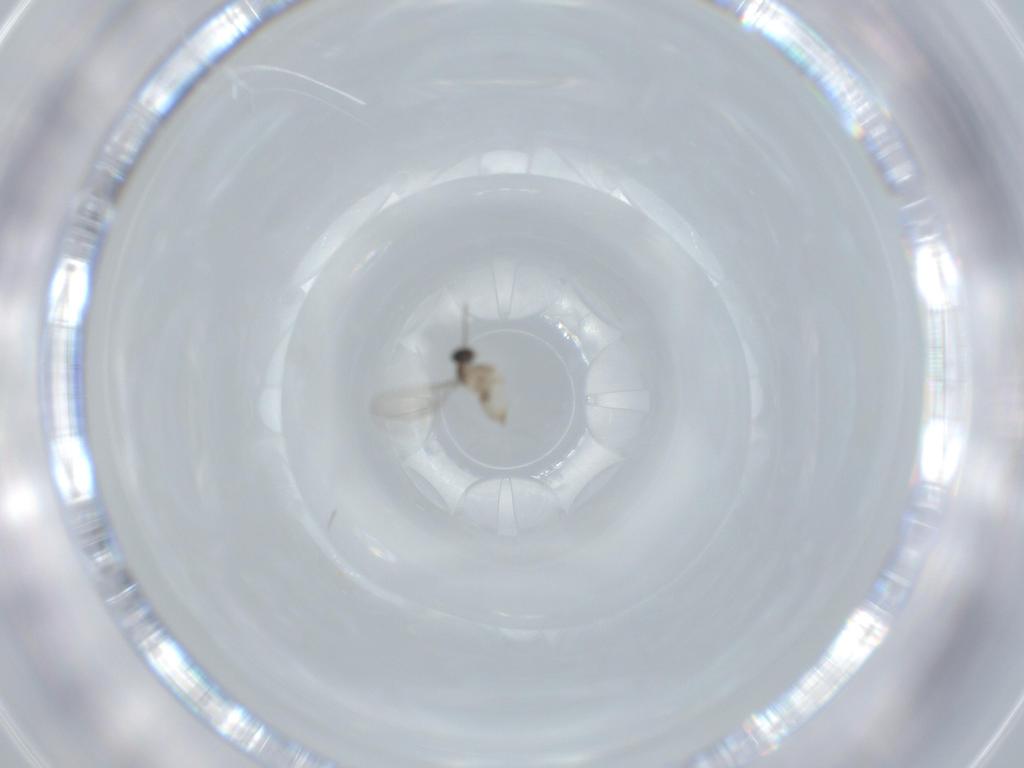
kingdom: Animalia
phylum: Arthropoda
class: Insecta
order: Diptera
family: Cecidomyiidae
